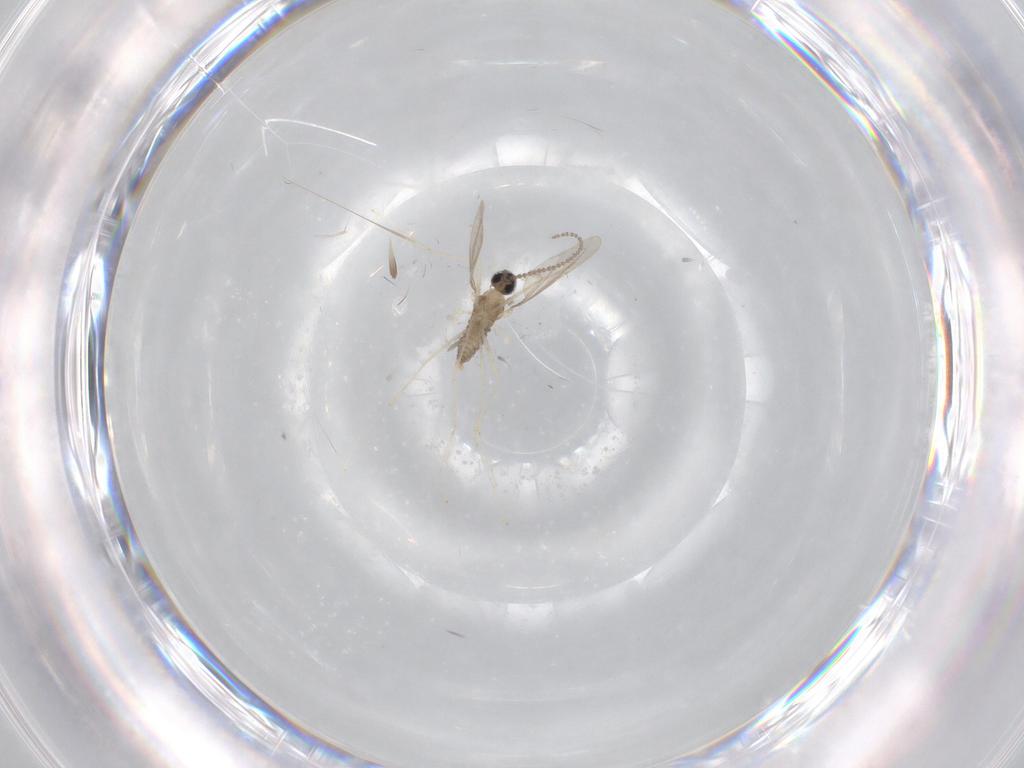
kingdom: Animalia
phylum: Arthropoda
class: Insecta
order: Diptera
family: Cecidomyiidae
